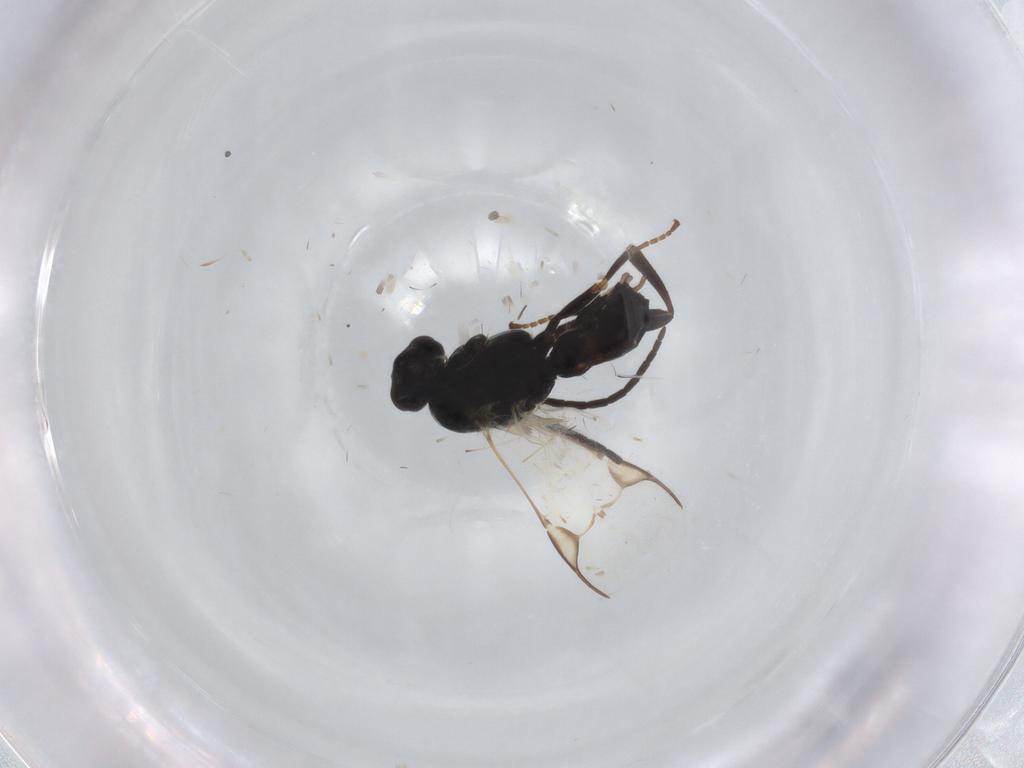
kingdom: Animalia
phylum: Arthropoda
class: Insecta
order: Hymenoptera
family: Braconidae
